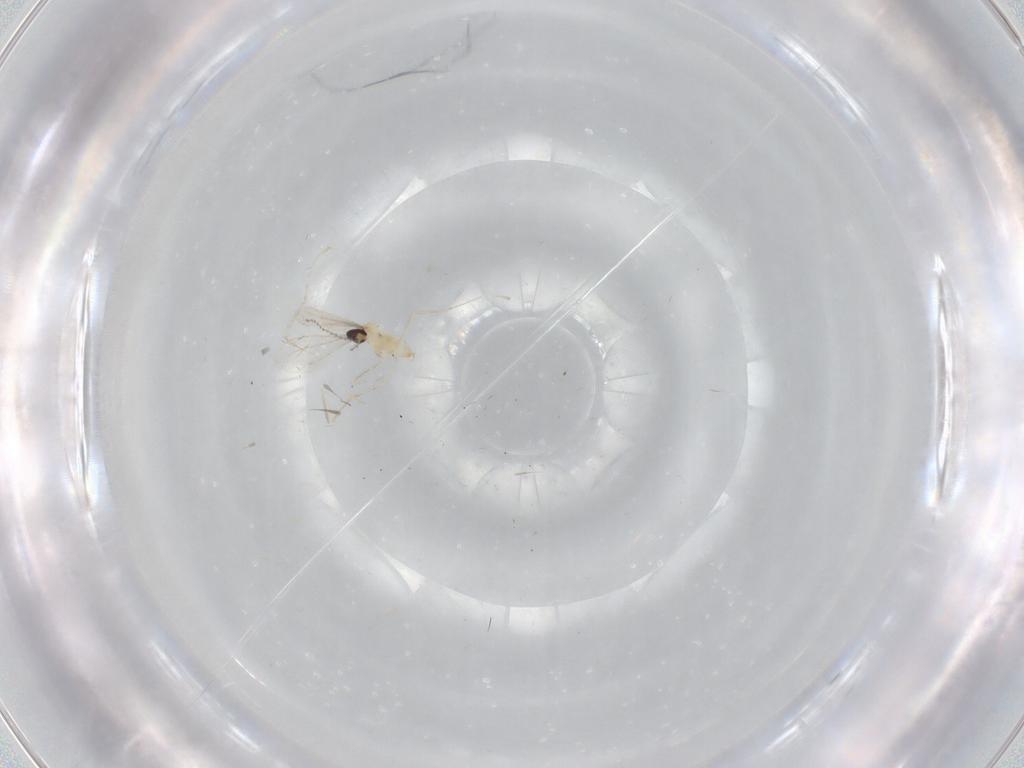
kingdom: Animalia
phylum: Arthropoda
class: Insecta
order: Diptera
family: Cecidomyiidae
